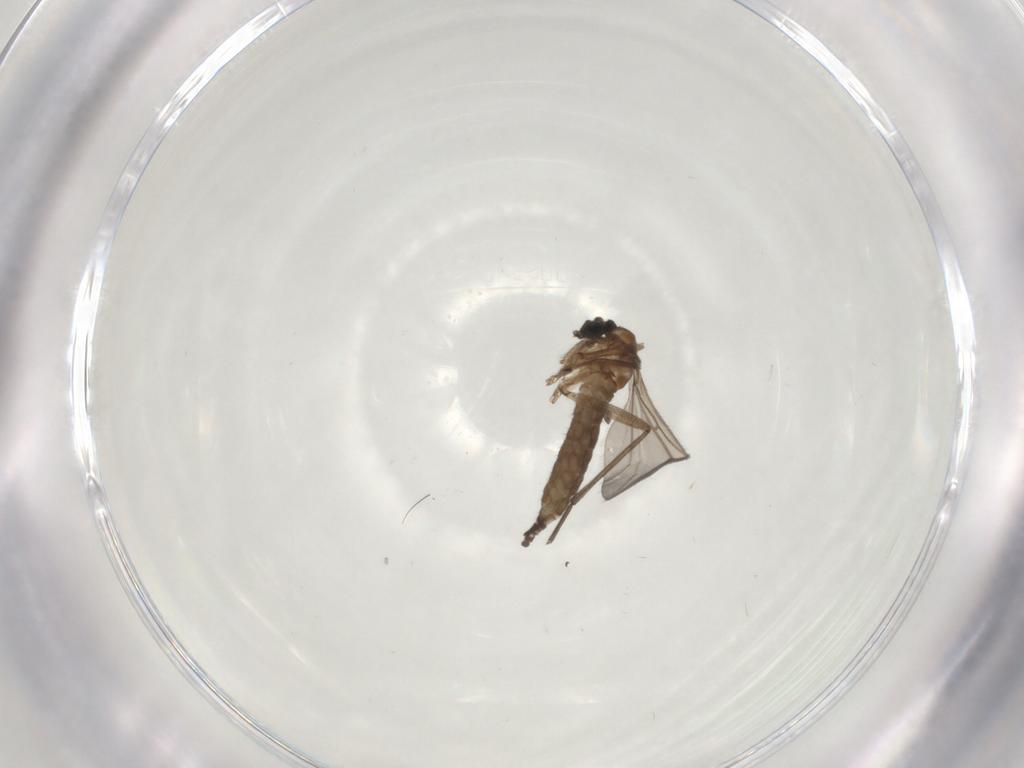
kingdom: Animalia
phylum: Arthropoda
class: Insecta
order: Diptera
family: Sciaridae
